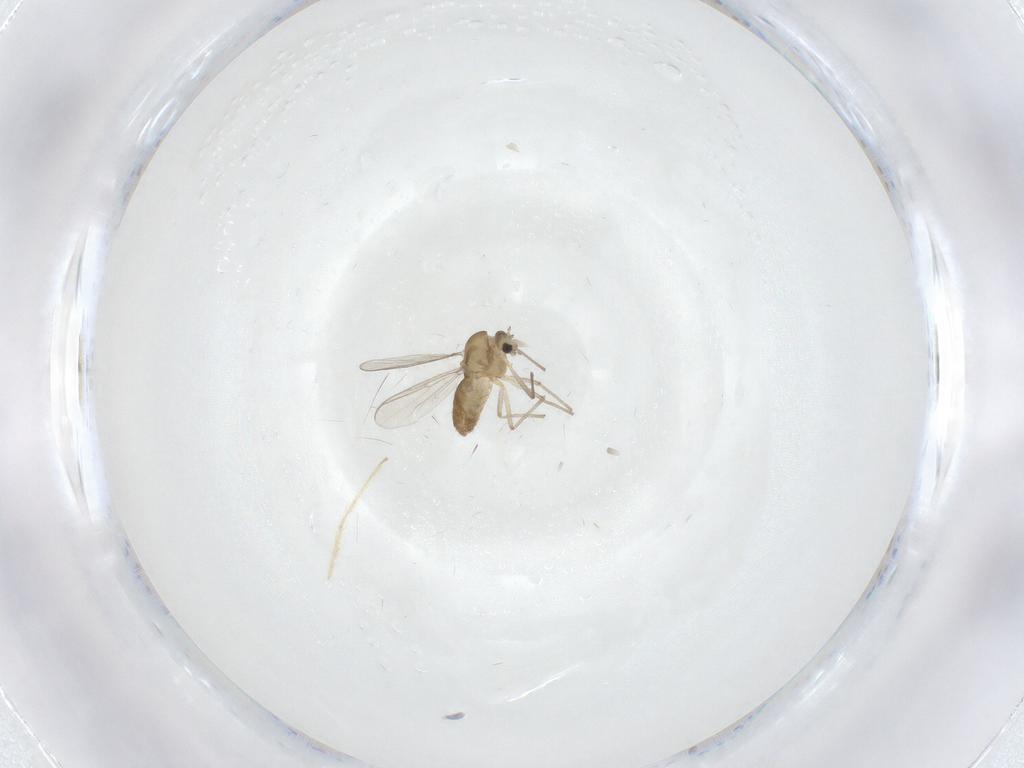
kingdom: Animalia
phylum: Arthropoda
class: Insecta
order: Diptera
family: Chironomidae
